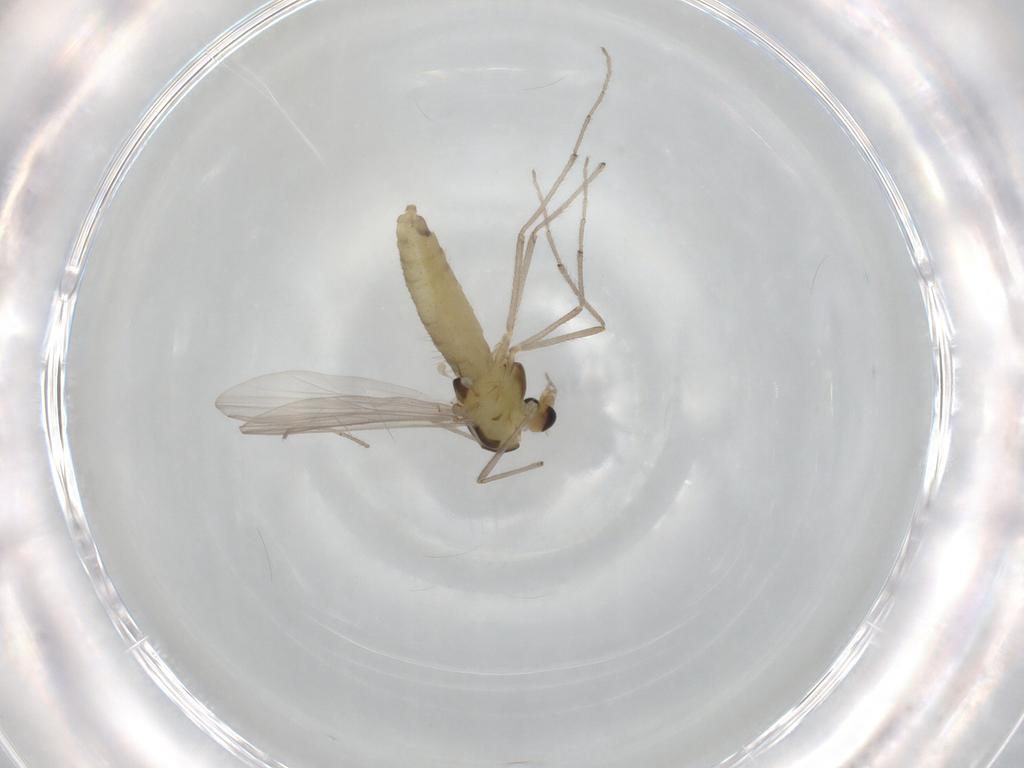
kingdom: Animalia
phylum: Arthropoda
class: Insecta
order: Diptera
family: Chironomidae
